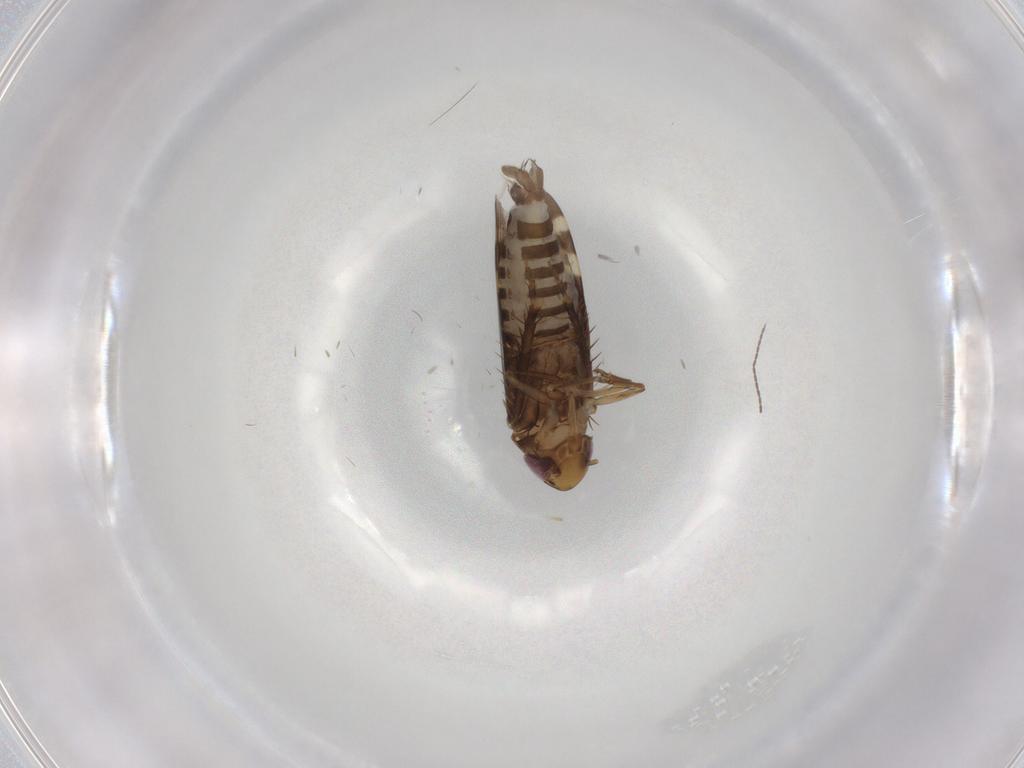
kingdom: Animalia
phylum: Arthropoda
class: Insecta
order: Hemiptera
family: Cicadellidae
